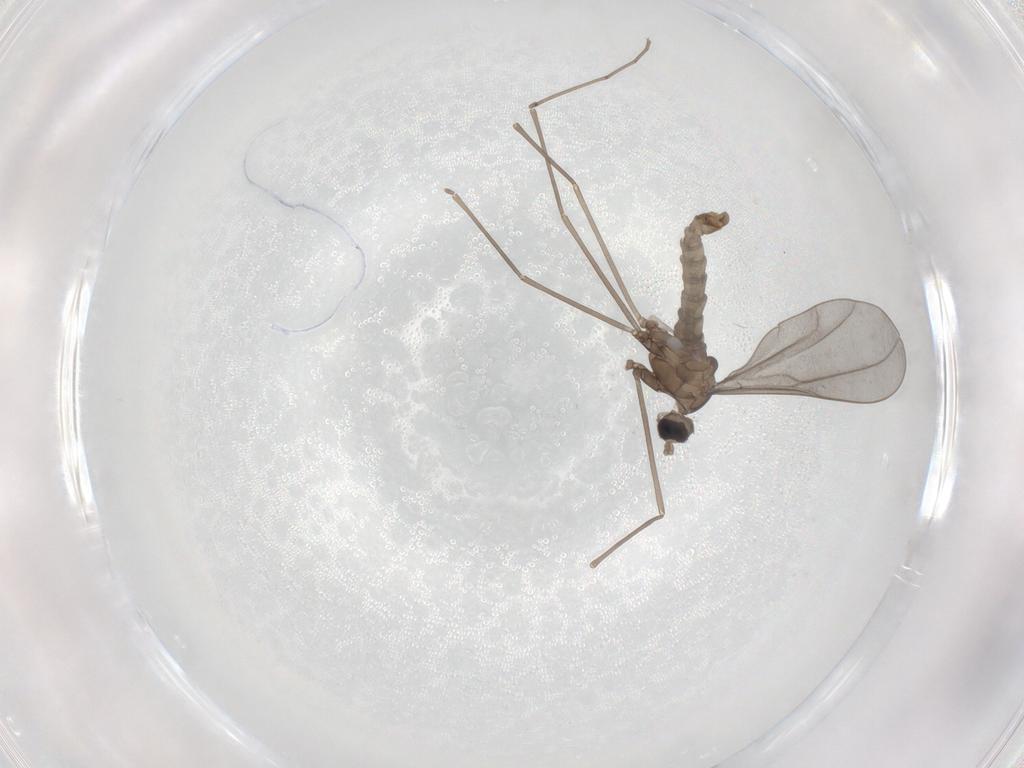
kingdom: Animalia
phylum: Arthropoda
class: Insecta
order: Diptera
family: Cecidomyiidae
